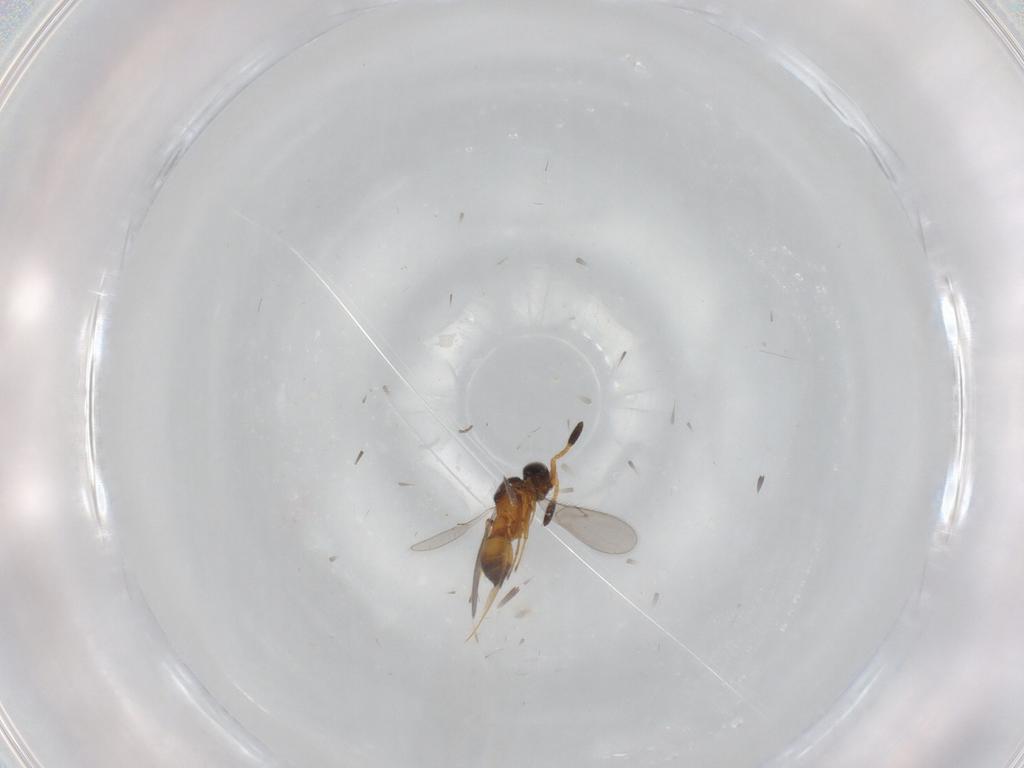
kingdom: Animalia
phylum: Arthropoda
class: Insecta
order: Hymenoptera
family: Scelionidae
